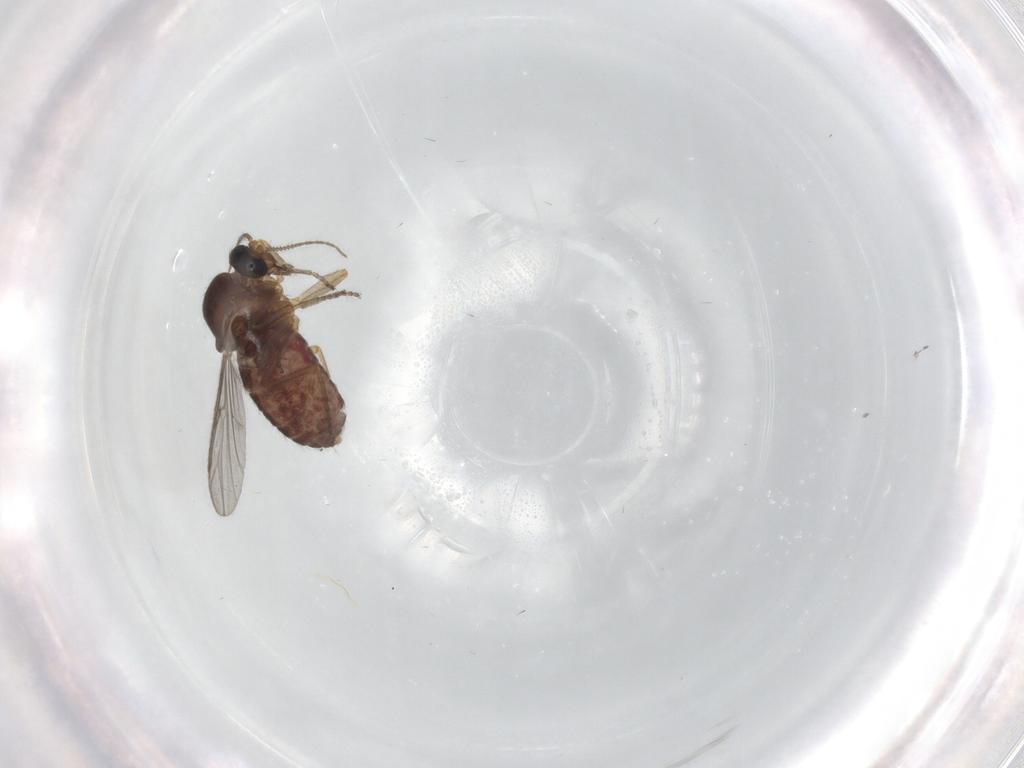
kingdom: Animalia
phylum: Arthropoda
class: Insecta
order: Diptera
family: Ceratopogonidae
